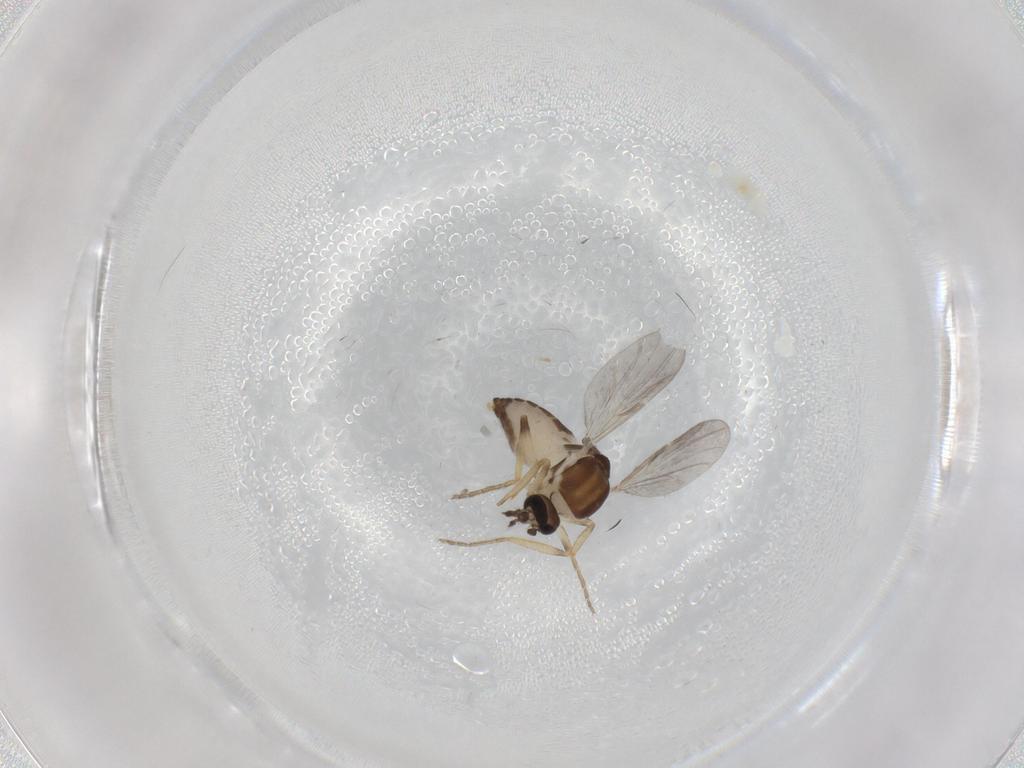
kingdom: Animalia
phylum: Arthropoda
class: Insecta
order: Diptera
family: Ceratopogonidae
